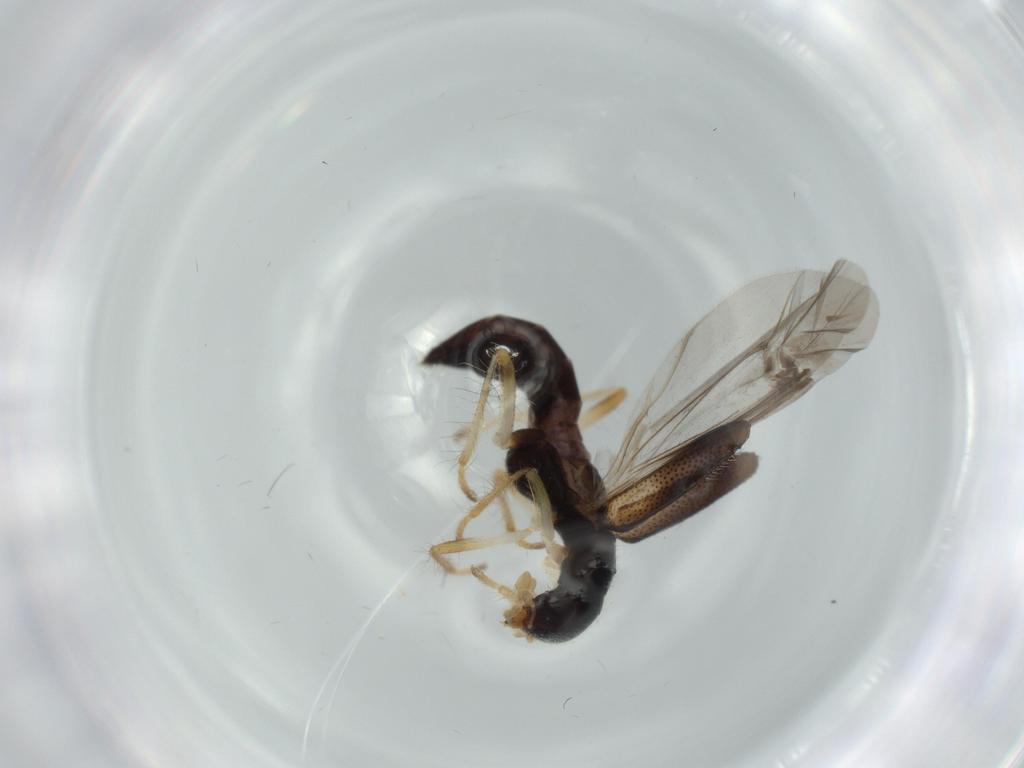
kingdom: Animalia
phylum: Arthropoda
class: Insecta
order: Coleoptera
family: Cleridae
